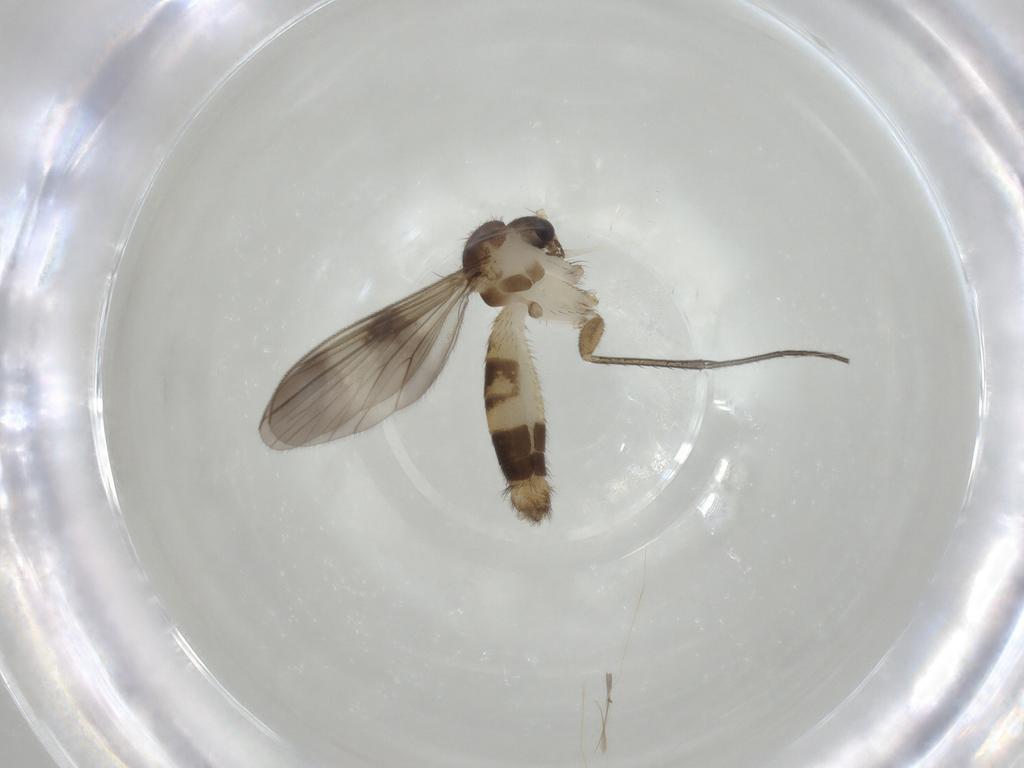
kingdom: Animalia
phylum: Arthropoda
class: Insecta
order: Diptera
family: Mycetophilidae
